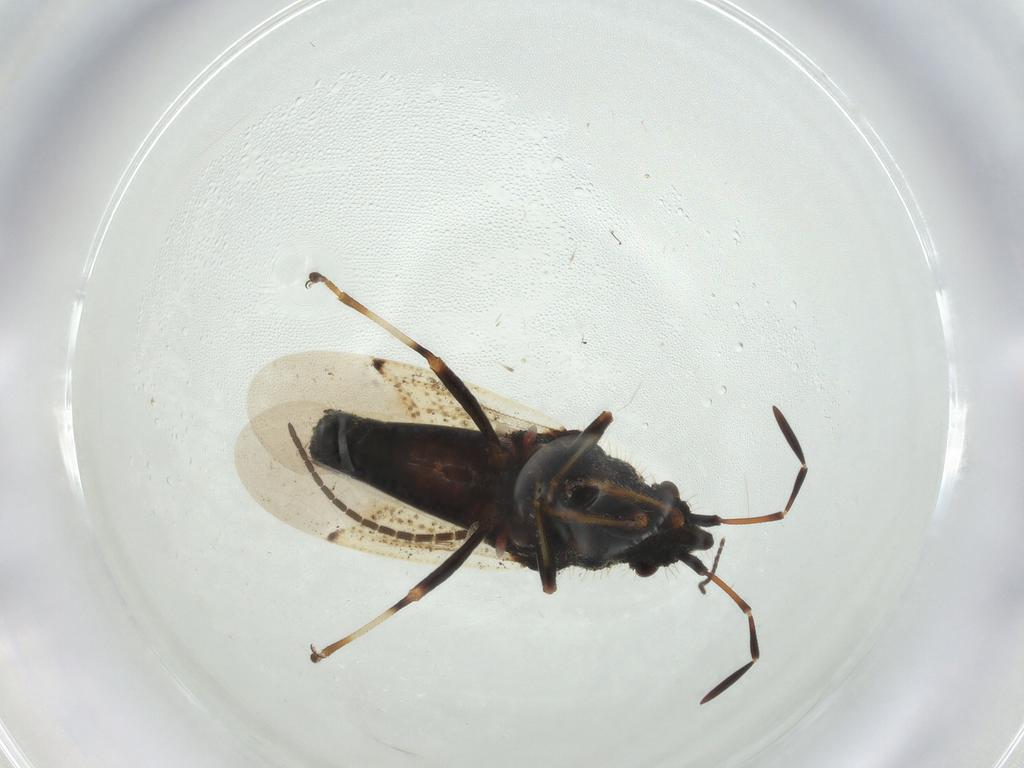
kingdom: Animalia
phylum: Arthropoda
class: Insecta
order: Hemiptera
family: Oxycarenidae
